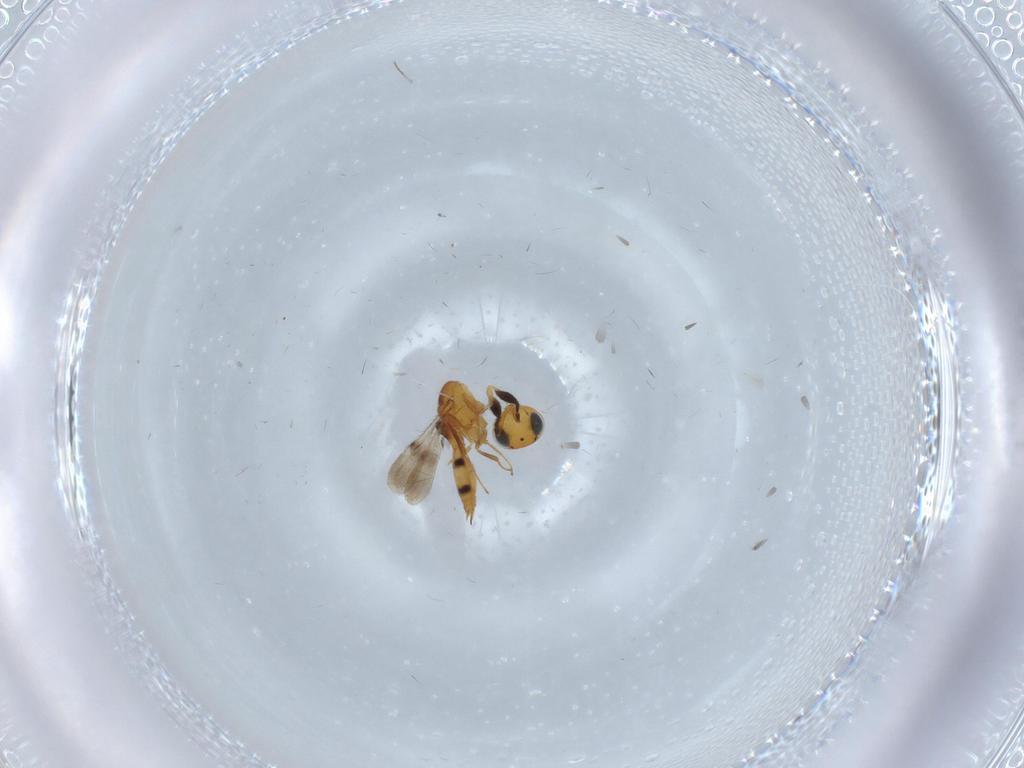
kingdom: Animalia
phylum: Arthropoda
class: Insecta
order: Hymenoptera
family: Scelionidae
